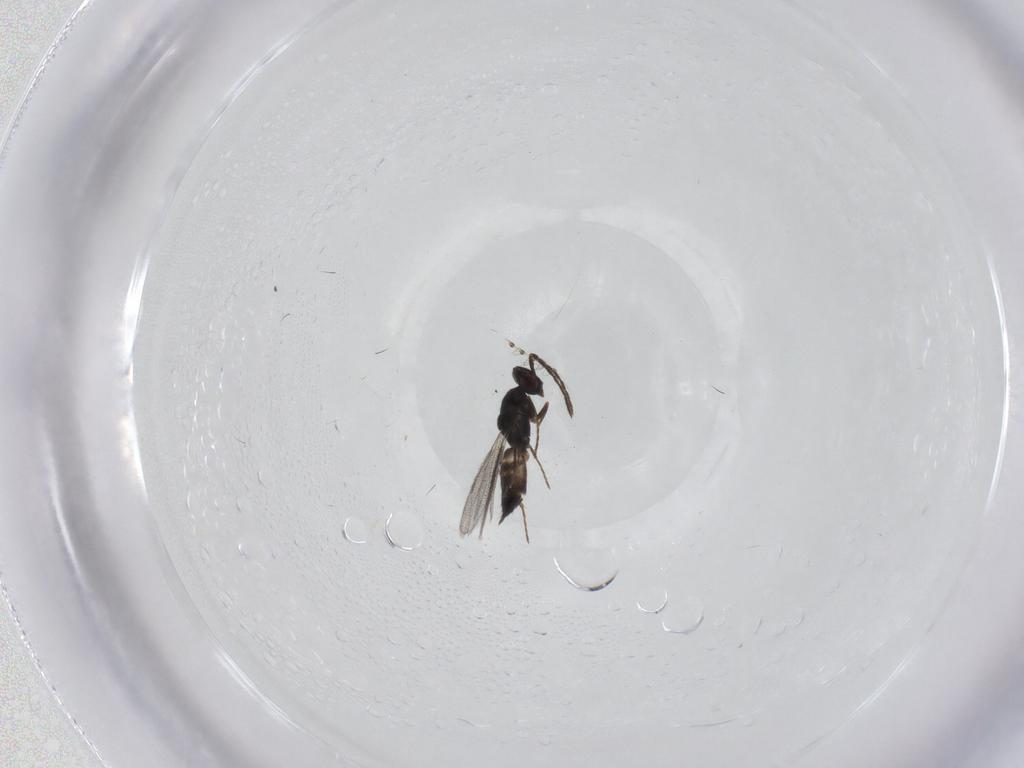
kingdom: Animalia
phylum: Arthropoda
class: Insecta
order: Hymenoptera
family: Eulophidae
